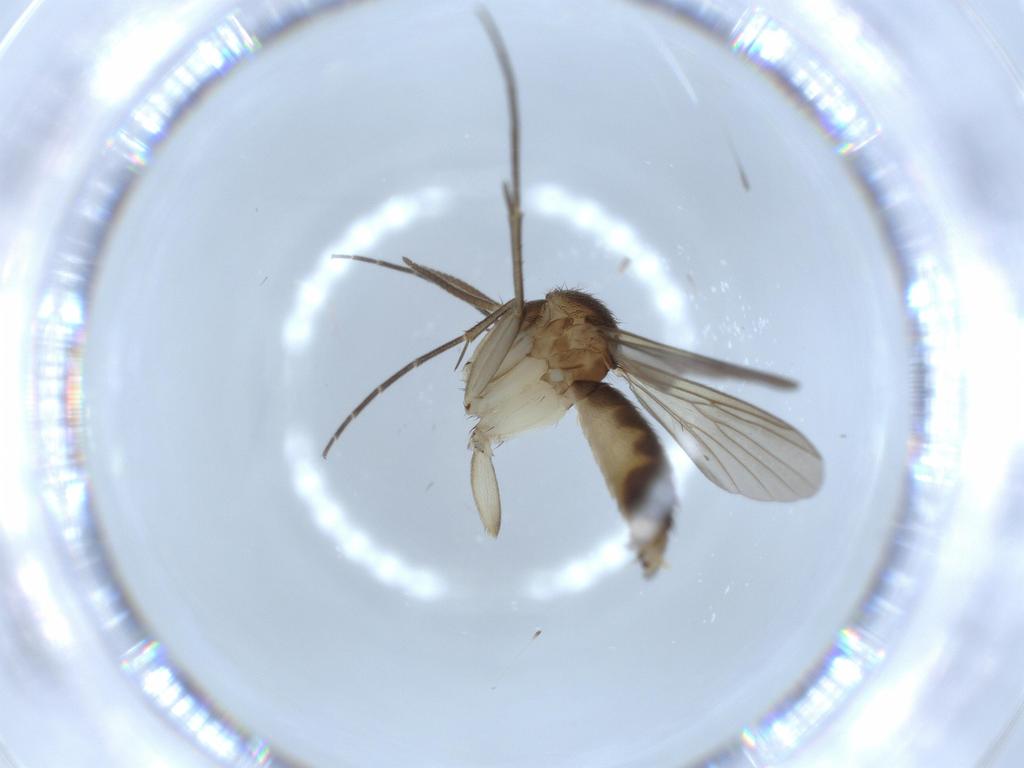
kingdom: Animalia
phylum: Arthropoda
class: Insecta
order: Diptera
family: Mycetophilidae
